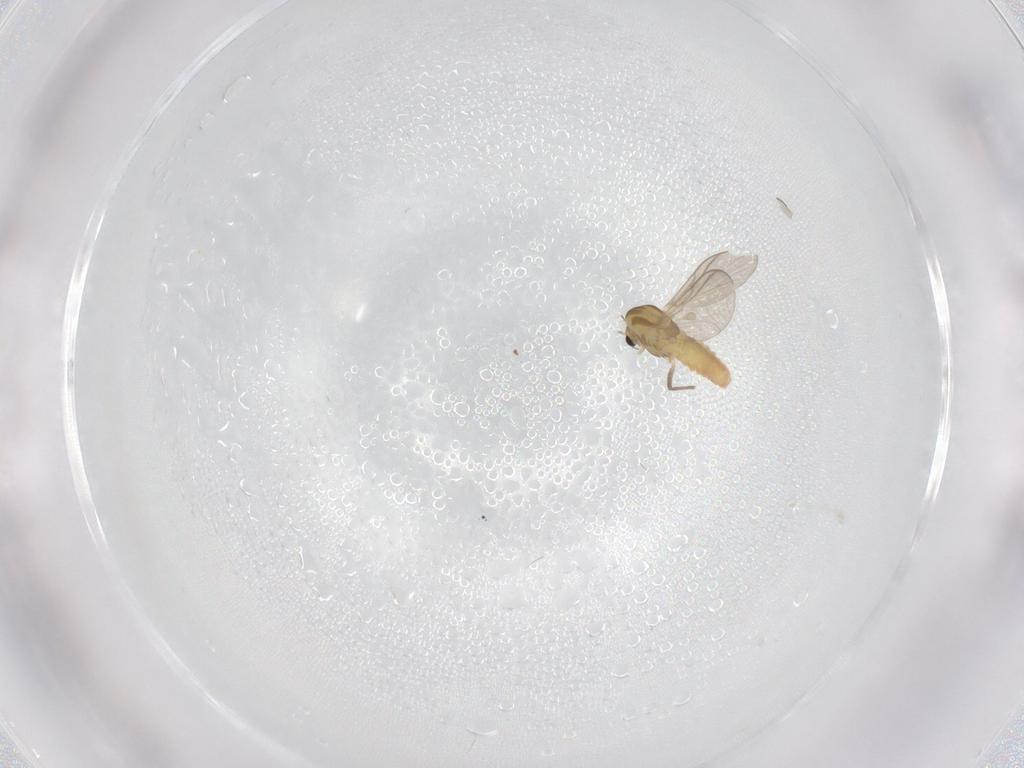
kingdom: Animalia
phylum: Arthropoda
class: Insecta
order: Diptera
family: Chironomidae
